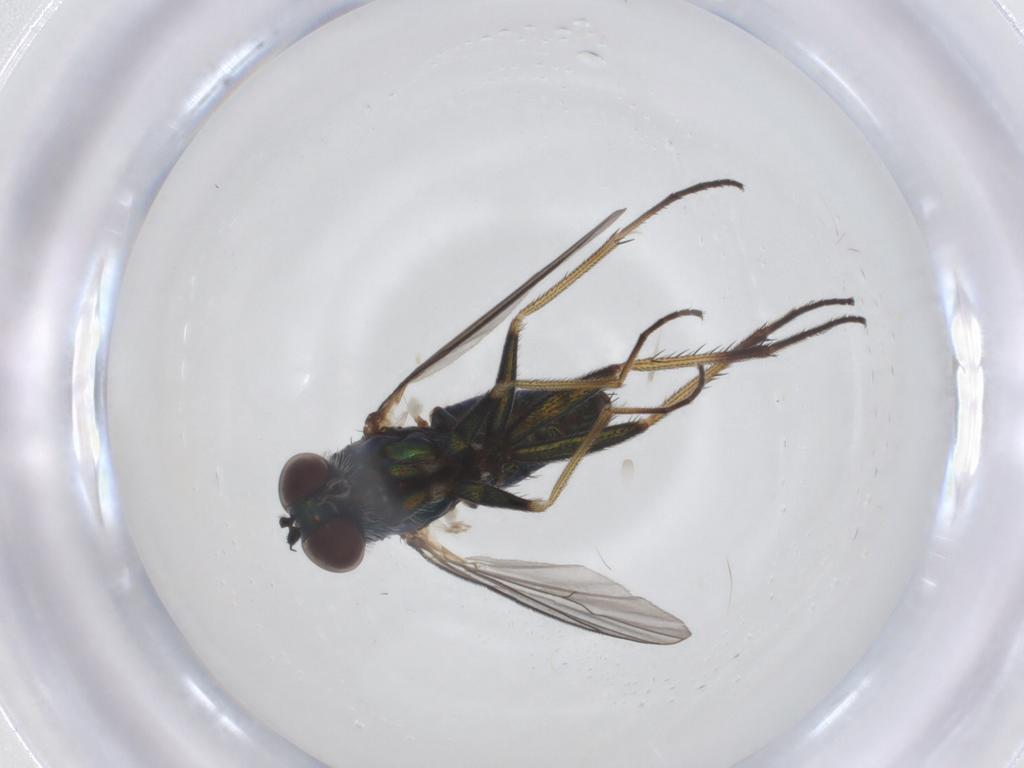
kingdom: Animalia
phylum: Arthropoda
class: Insecta
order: Diptera
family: Dolichopodidae
